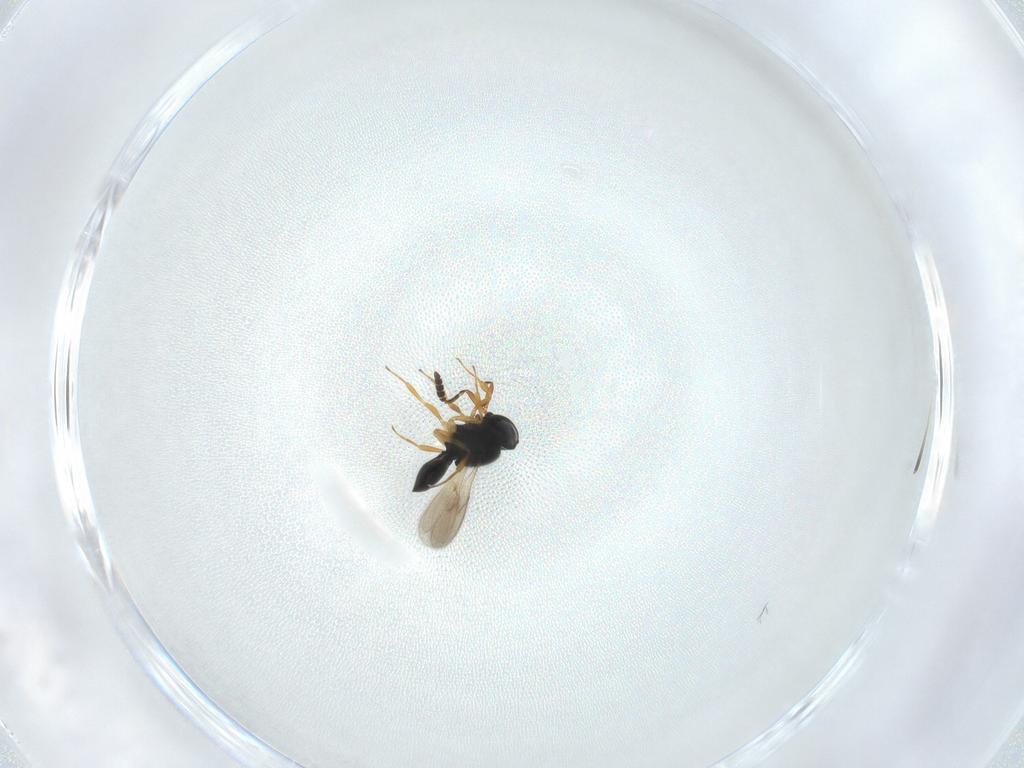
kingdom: Animalia
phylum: Arthropoda
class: Insecta
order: Hymenoptera
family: Scelionidae
